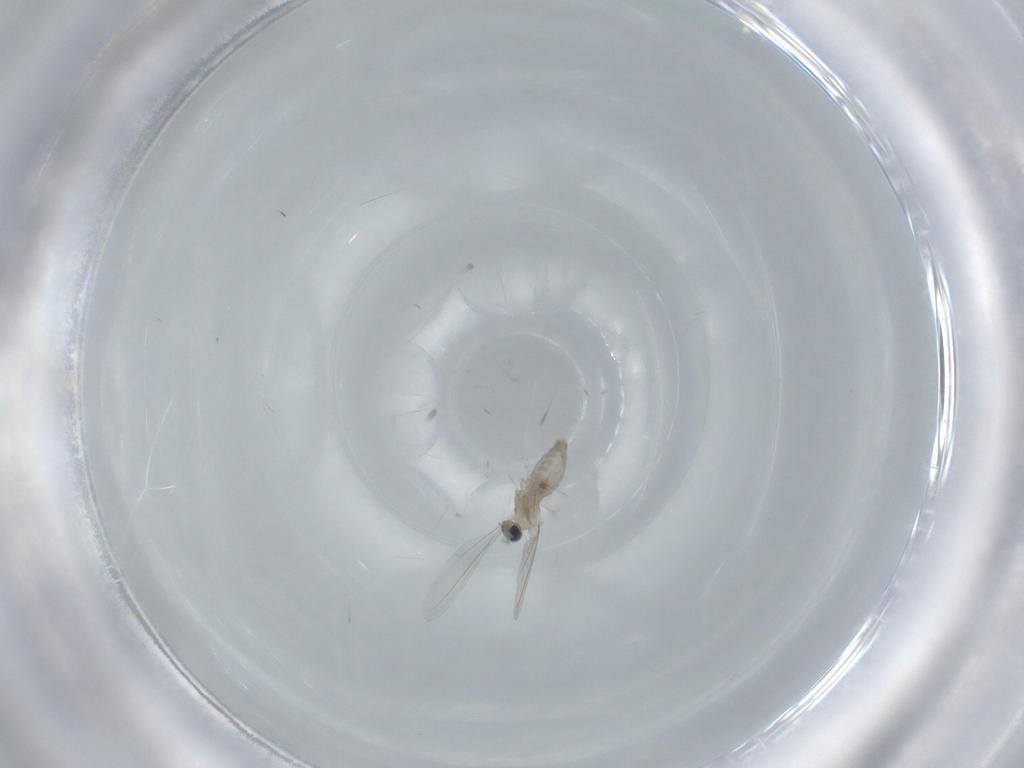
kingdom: Animalia
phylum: Arthropoda
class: Insecta
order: Diptera
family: Cecidomyiidae
